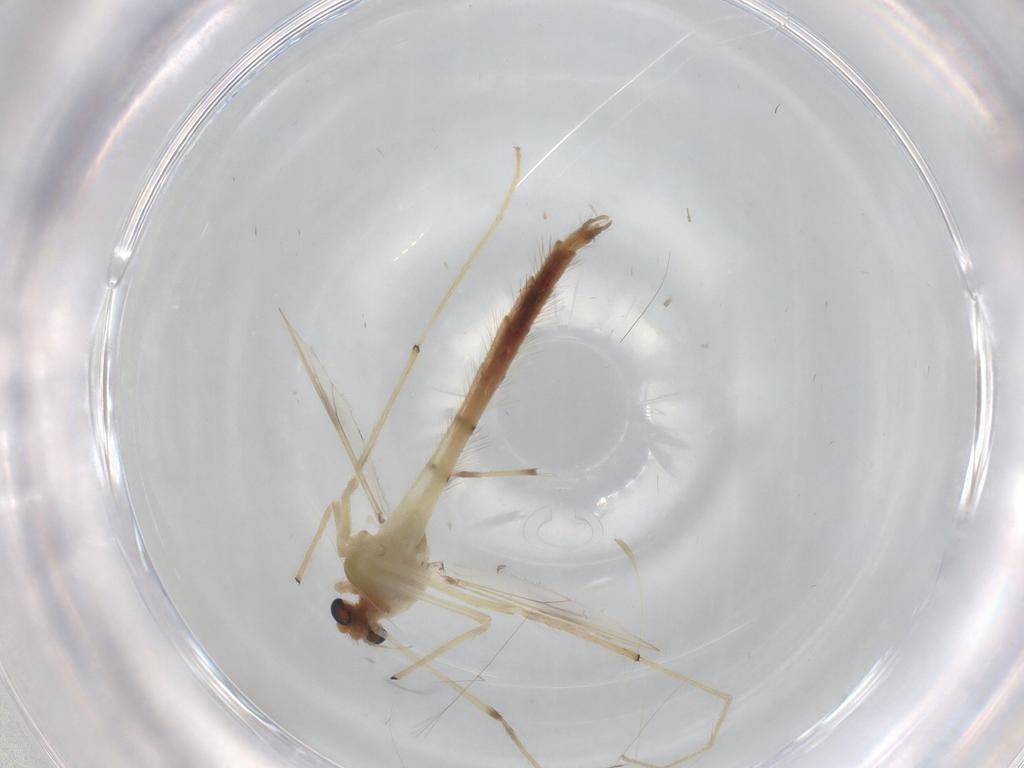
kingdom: Animalia
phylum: Arthropoda
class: Insecta
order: Diptera
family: Chironomidae
